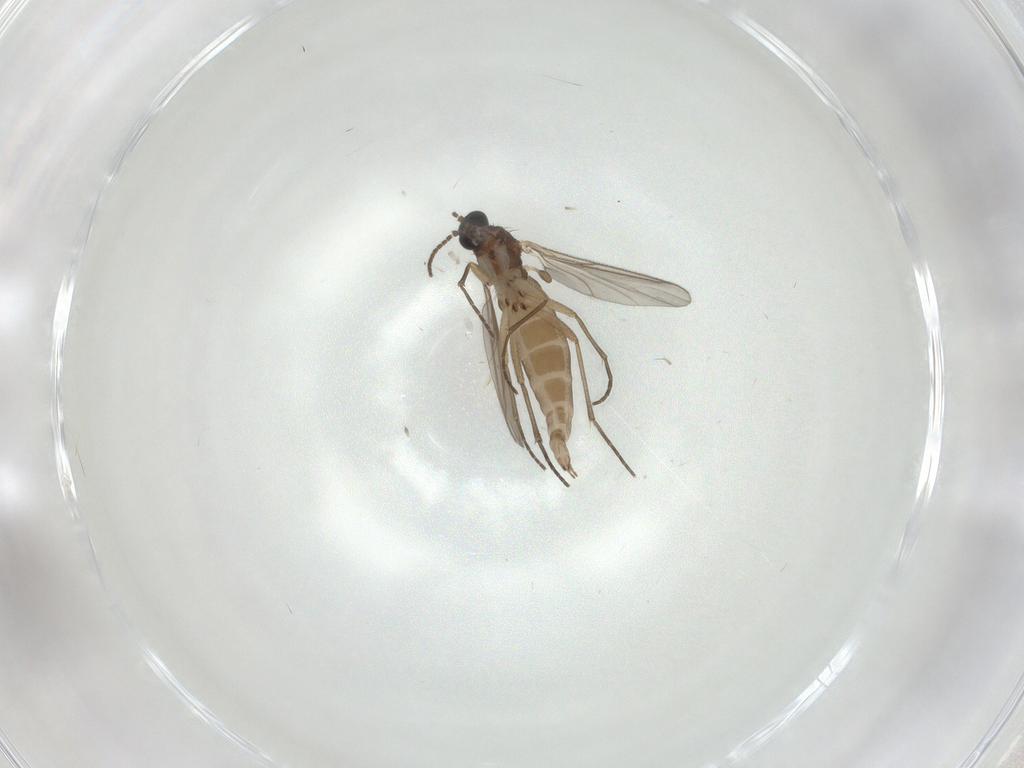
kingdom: Animalia
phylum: Arthropoda
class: Insecta
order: Diptera
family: Sciaridae
